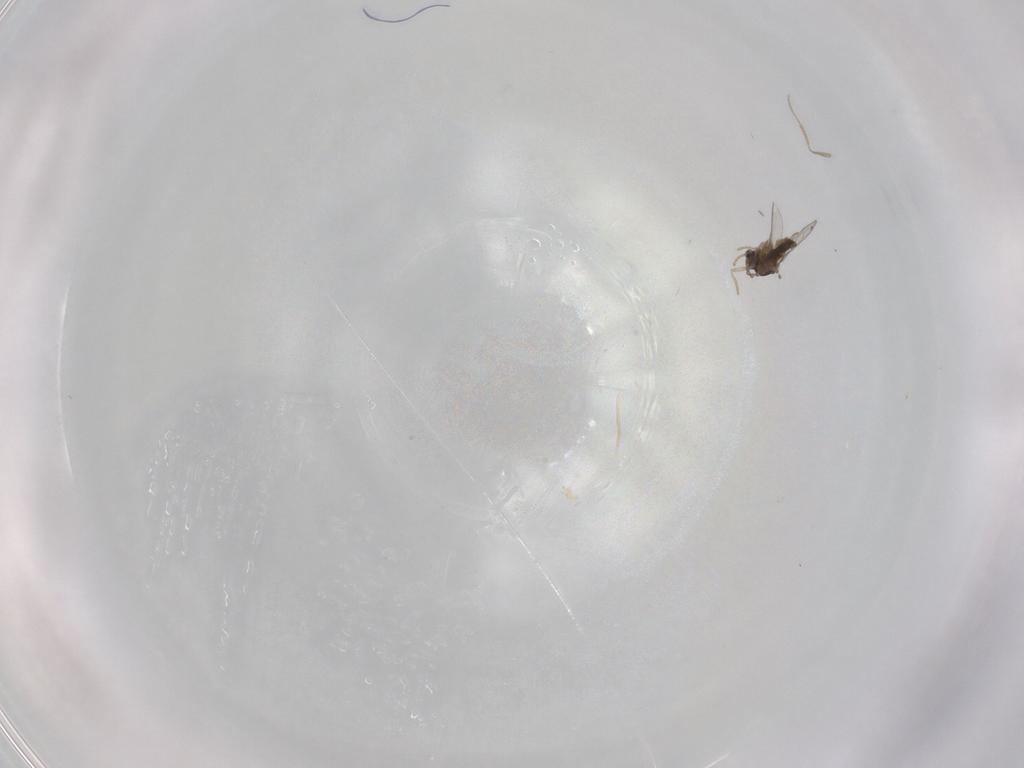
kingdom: Animalia
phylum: Arthropoda
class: Insecta
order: Diptera
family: Cecidomyiidae
